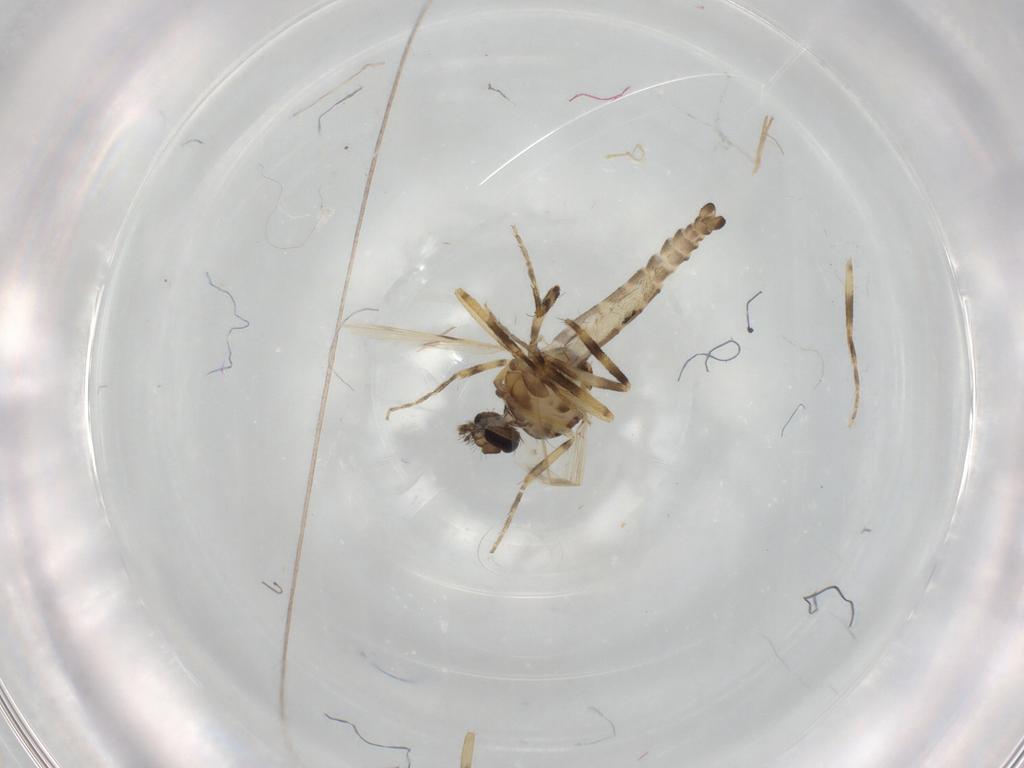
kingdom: Animalia
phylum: Arthropoda
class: Insecta
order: Diptera
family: Ceratopogonidae
